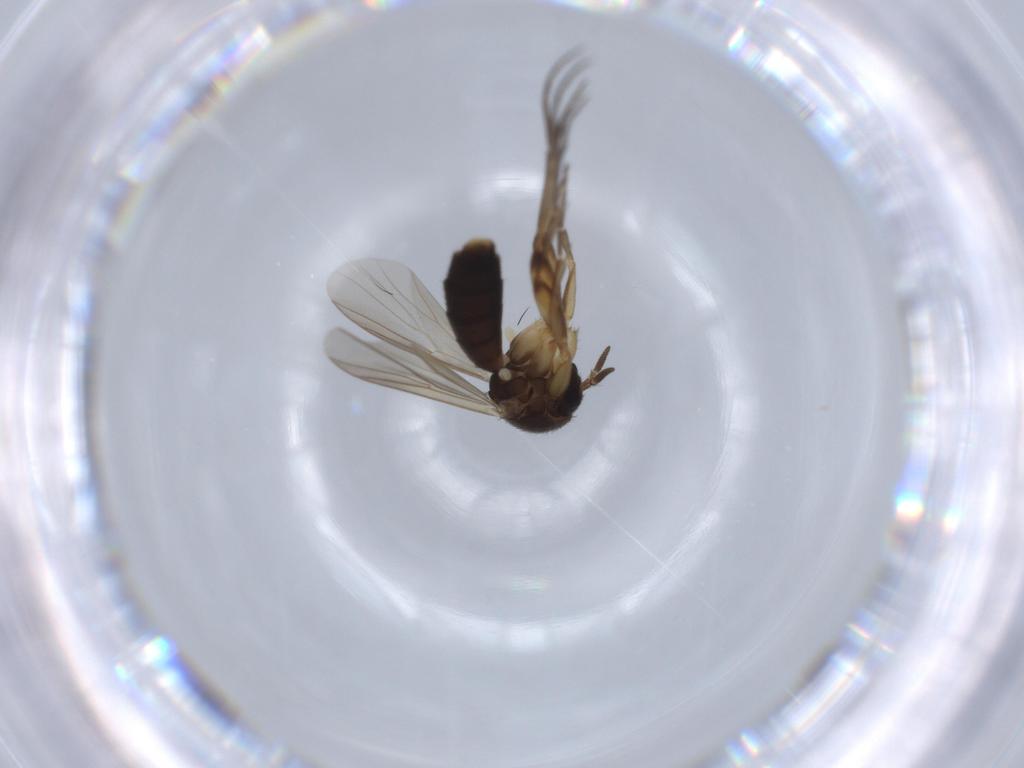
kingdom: Animalia
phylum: Arthropoda
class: Insecta
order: Diptera
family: Mycetophilidae
